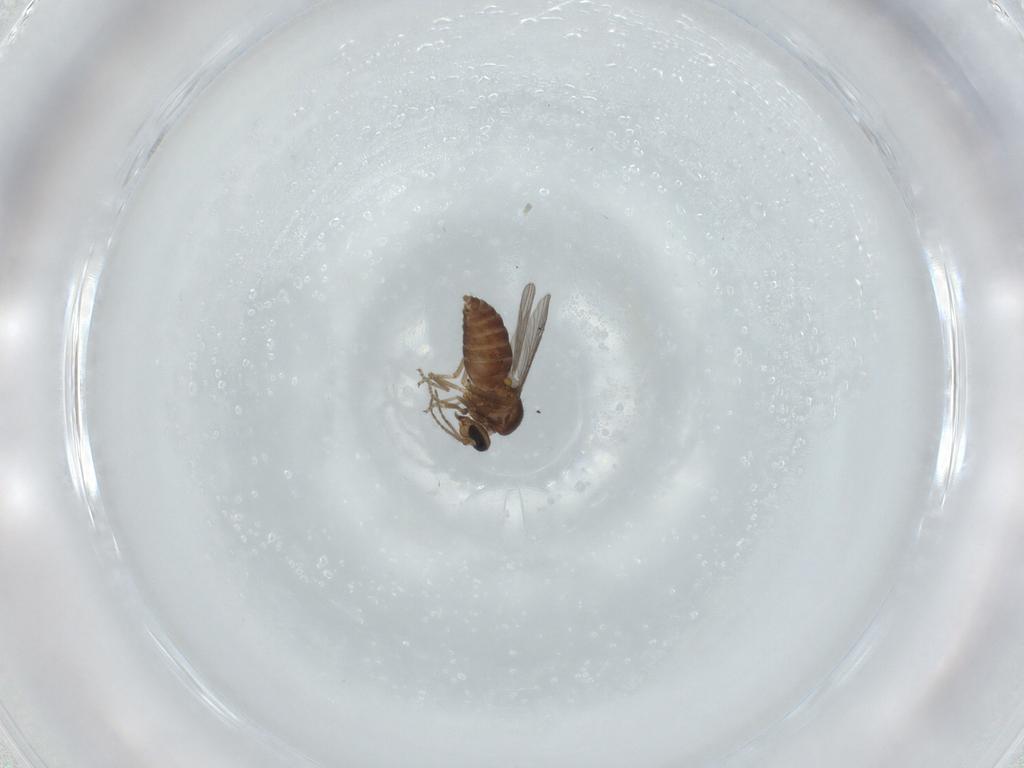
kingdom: Animalia
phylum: Arthropoda
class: Insecta
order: Diptera
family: Ceratopogonidae
